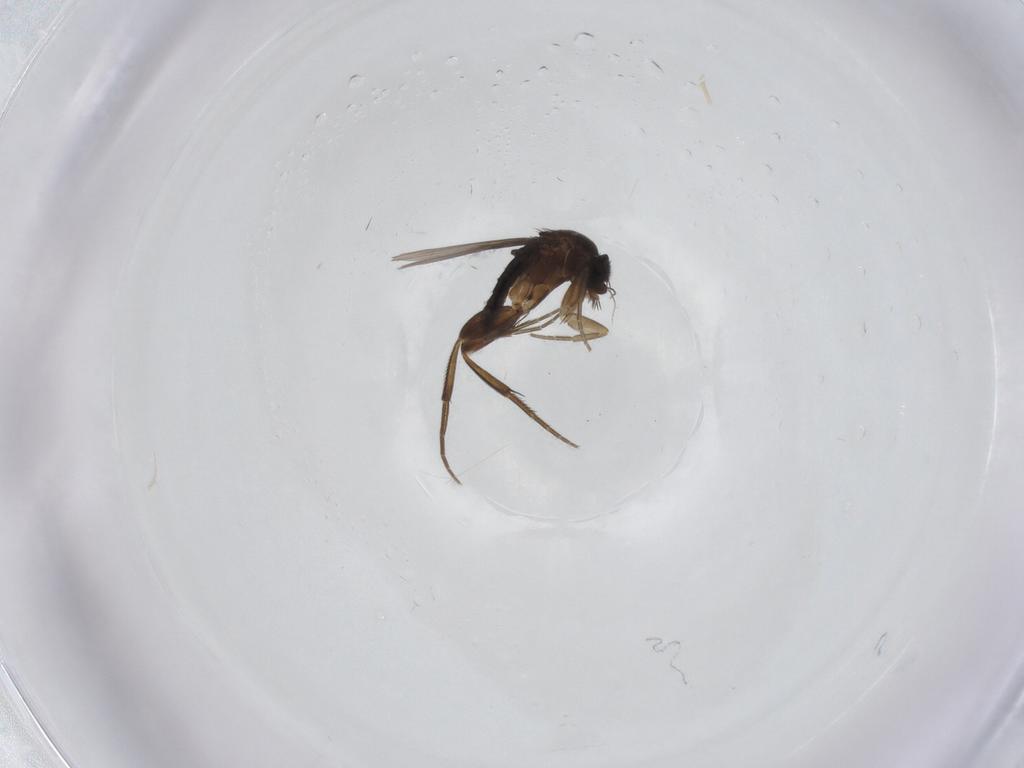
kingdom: Animalia
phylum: Arthropoda
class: Insecta
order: Diptera
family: Phoridae
